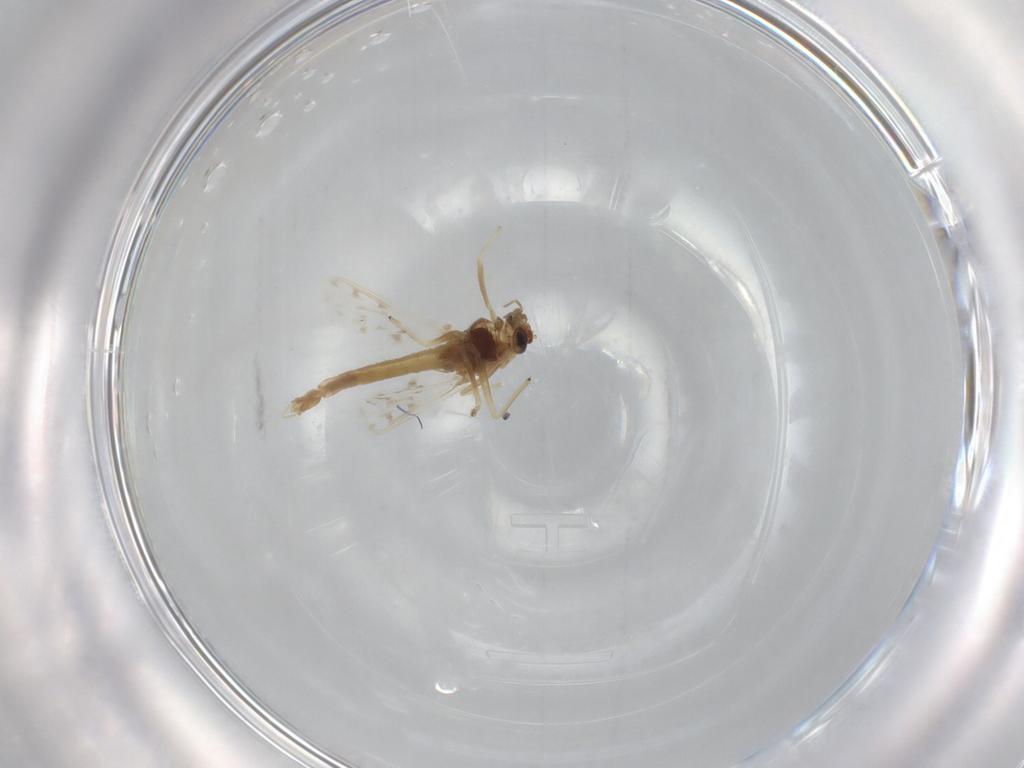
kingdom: Animalia
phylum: Arthropoda
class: Insecta
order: Diptera
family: Chironomidae
